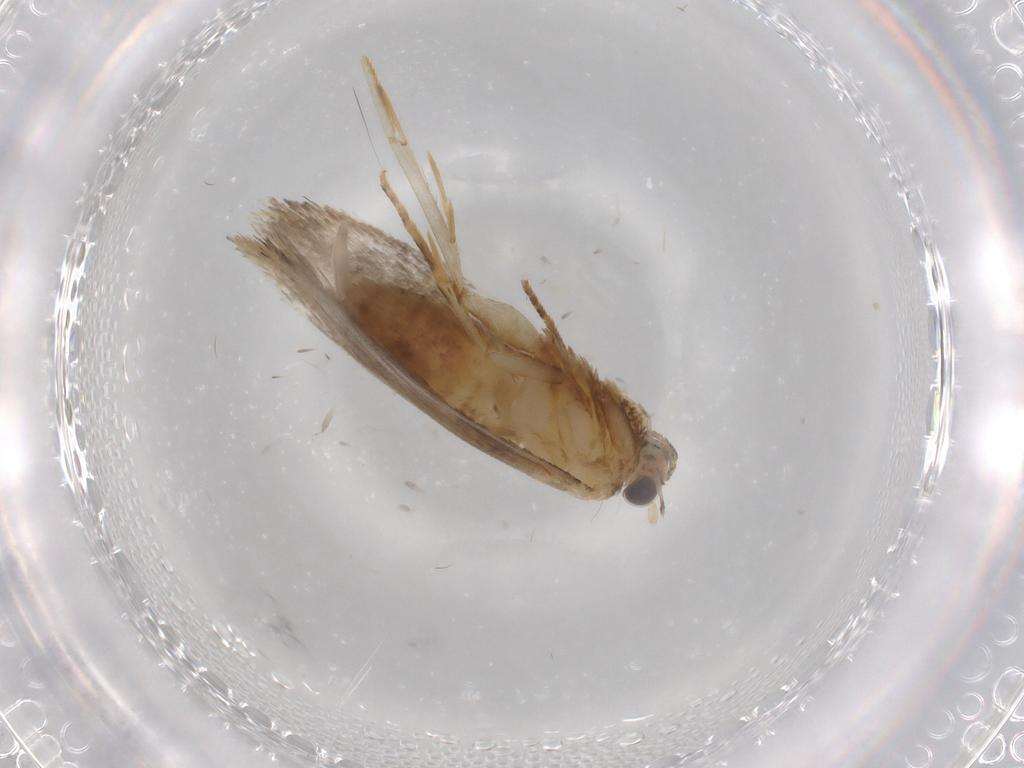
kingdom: Animalia
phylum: Arthropoda
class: Insecta
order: Lepidoptera
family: Tineidae
